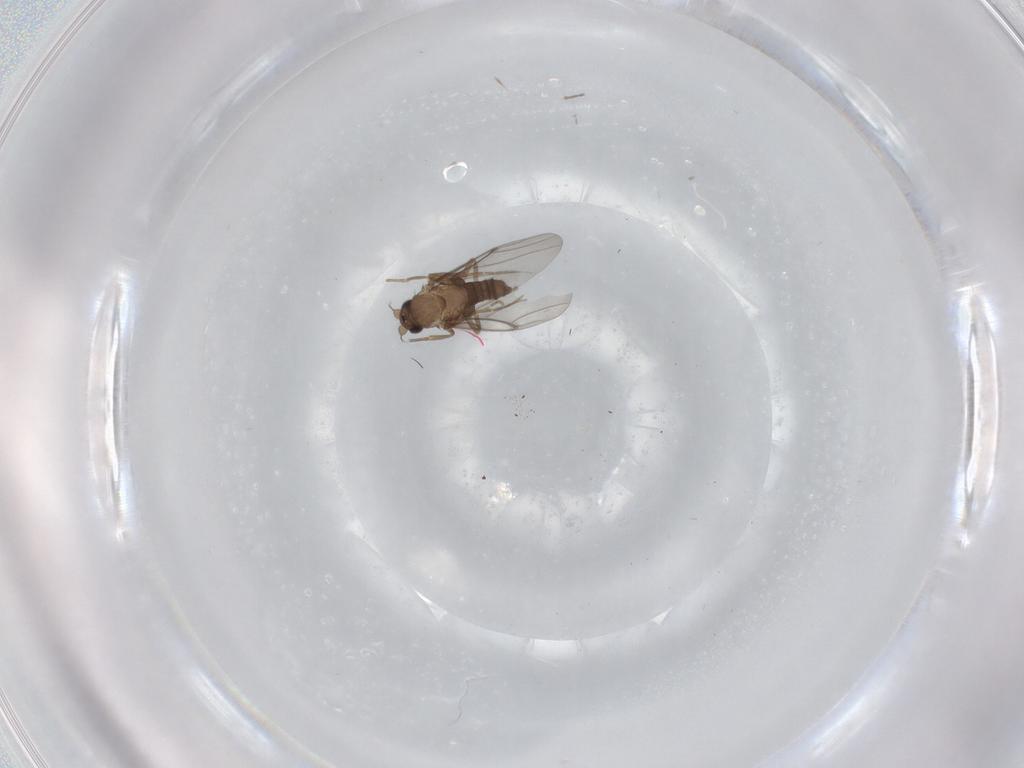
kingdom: Animalia
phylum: Arthropoda
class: Insecta
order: Diptera
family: Psychodidae
